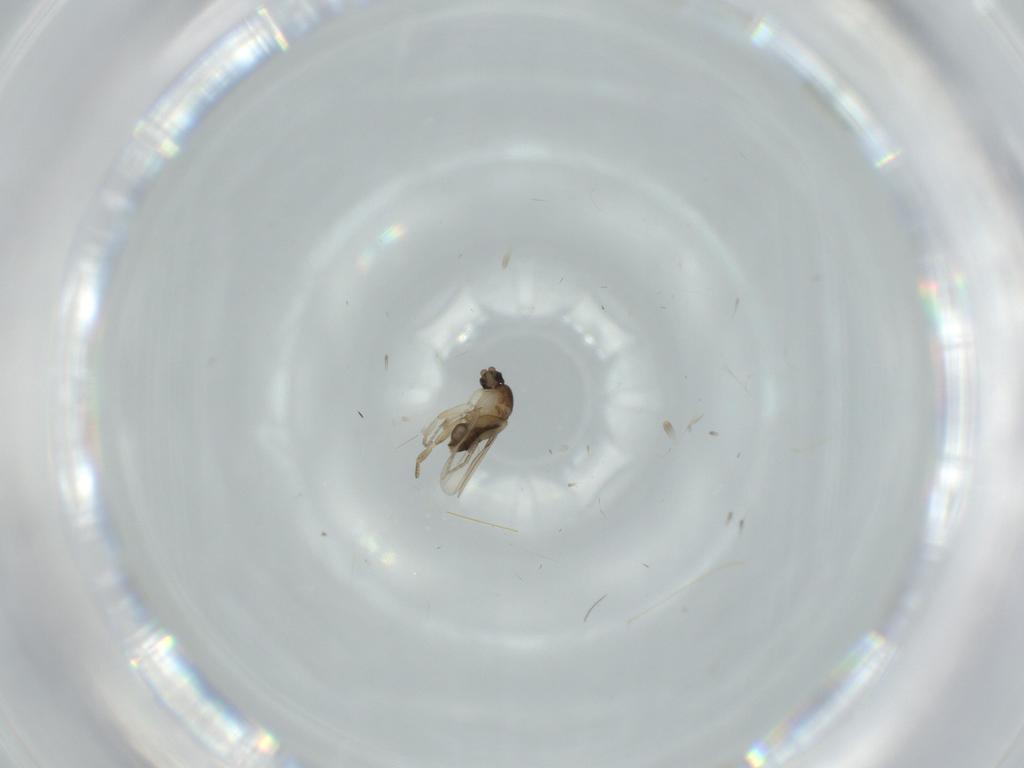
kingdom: Animalia
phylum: Arthropoda
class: Insecta
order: Diptera
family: Phoridae
